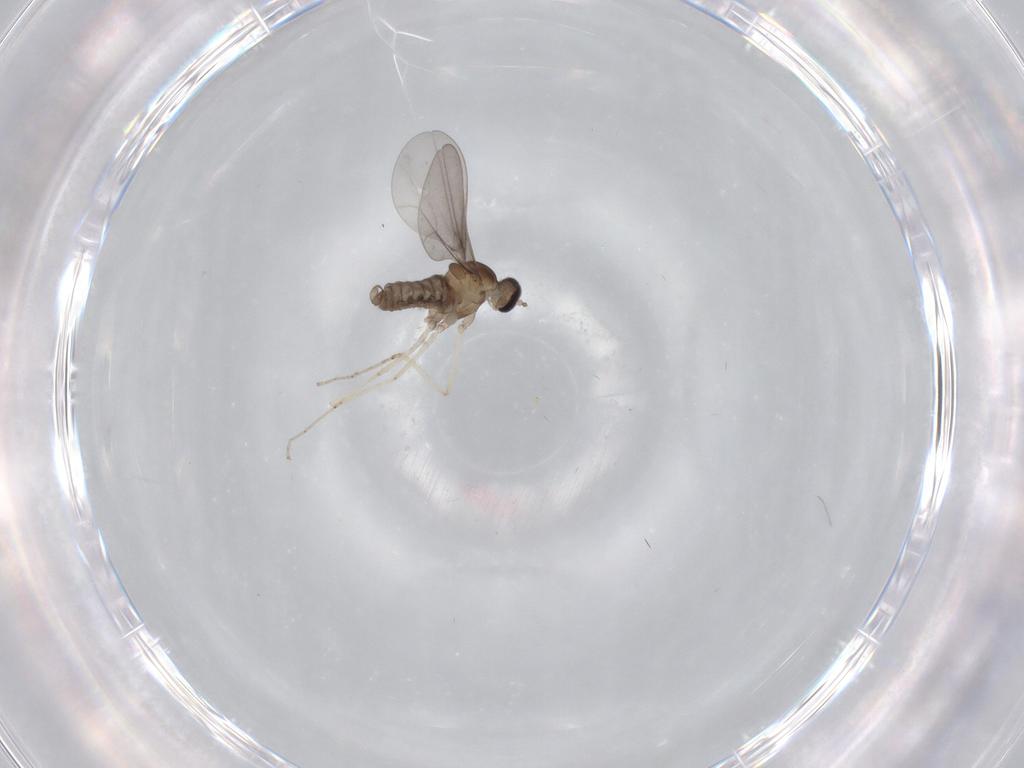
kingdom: Animalia
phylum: Arthropoda
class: Insecta
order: Diptera
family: Cecidomyiidae
